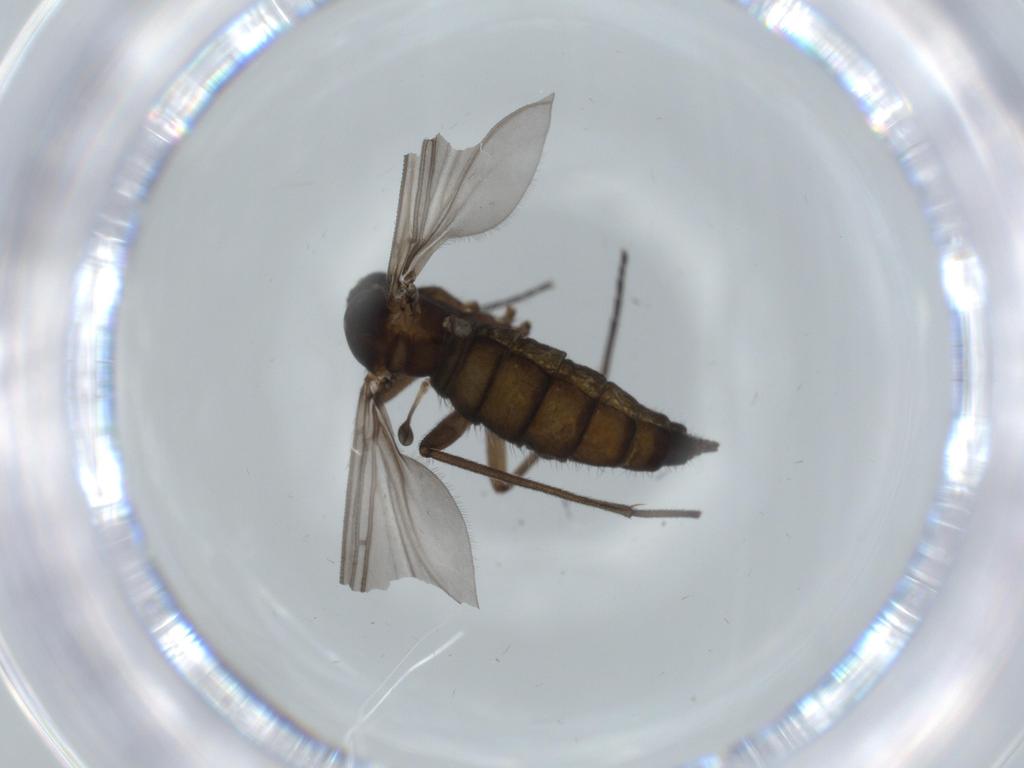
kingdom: Animalia
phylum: Arthropoda
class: Insecta
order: Diptera
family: Sciaridae
